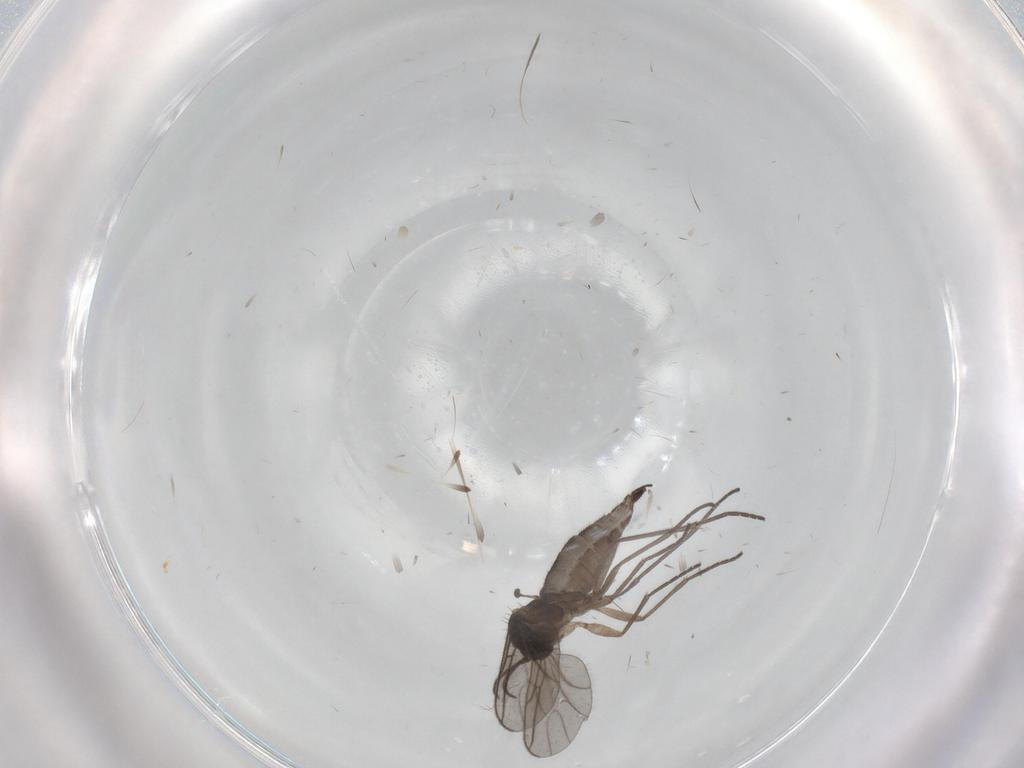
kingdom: Animalia
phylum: Arthropoda
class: Insecta
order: Diptera
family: Sciaridae
